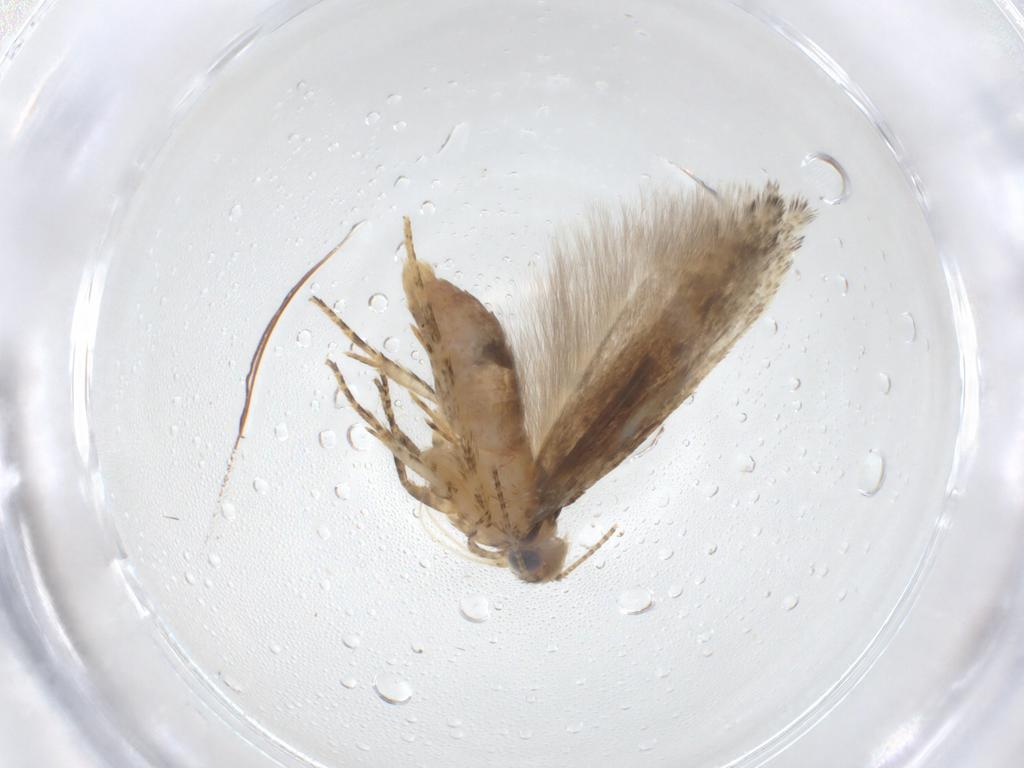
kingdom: Animalia
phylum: Arthropoda
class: Insecta
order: Lepidoptera
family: Gelechiidae
